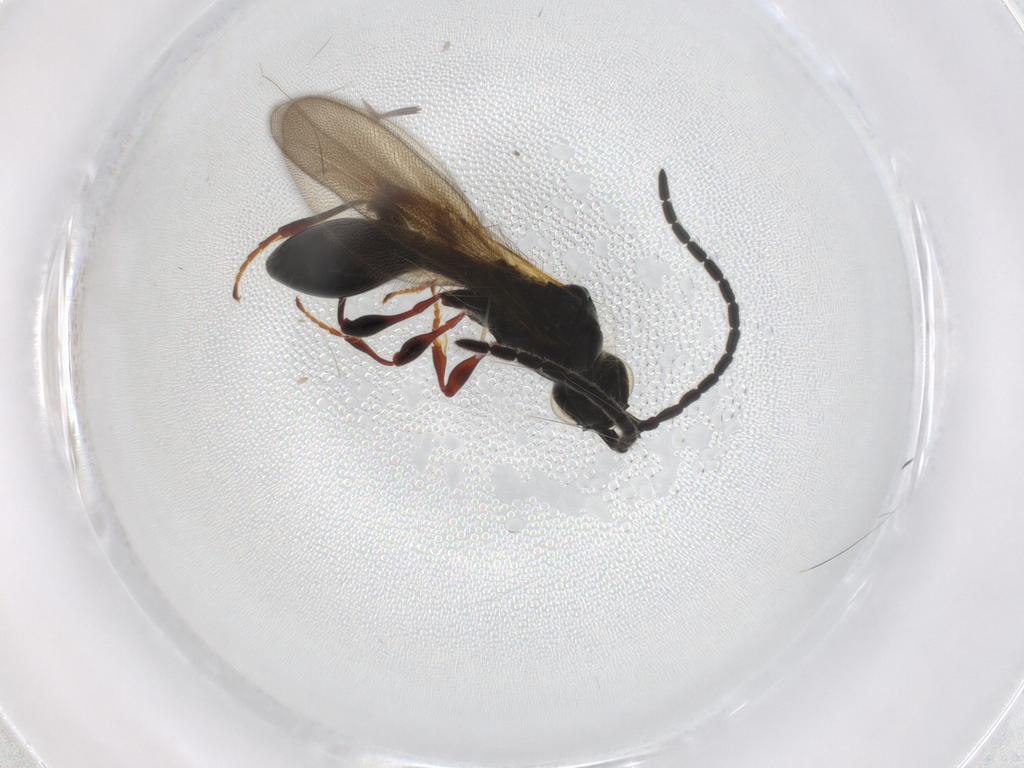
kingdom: Animalia
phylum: Arthropoda
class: Insecta
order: Hymenoptera
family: Diapriidae
